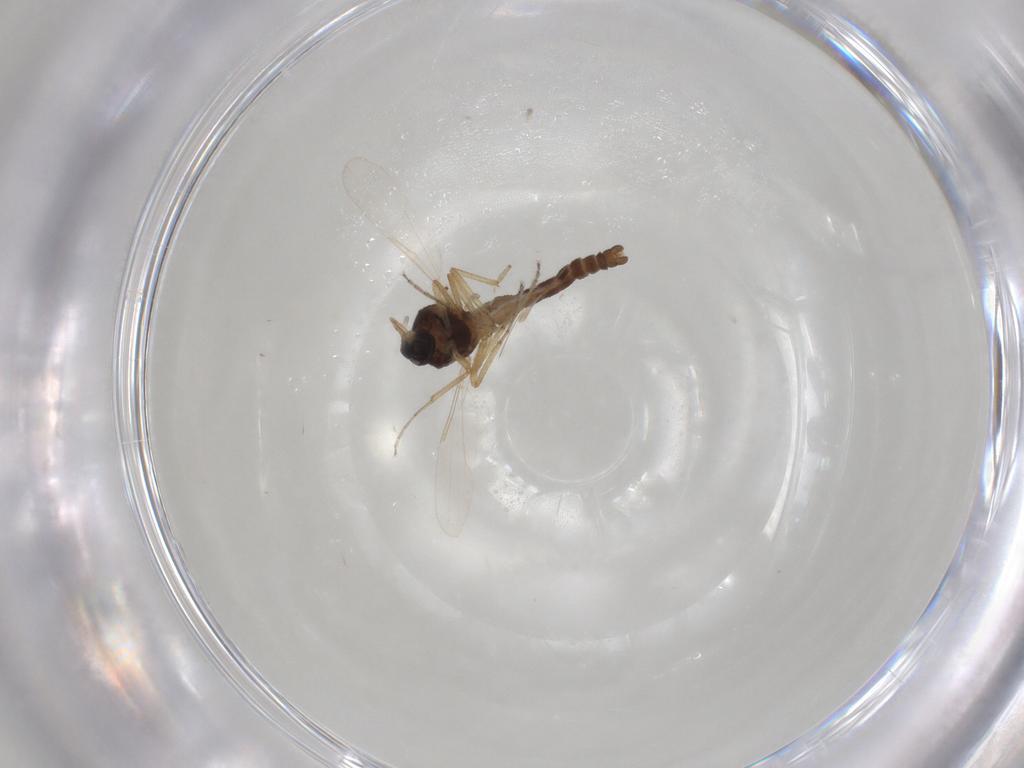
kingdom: Animalia
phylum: Arthropoda
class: Insecta
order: Diptera
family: Ceratopogonidae
